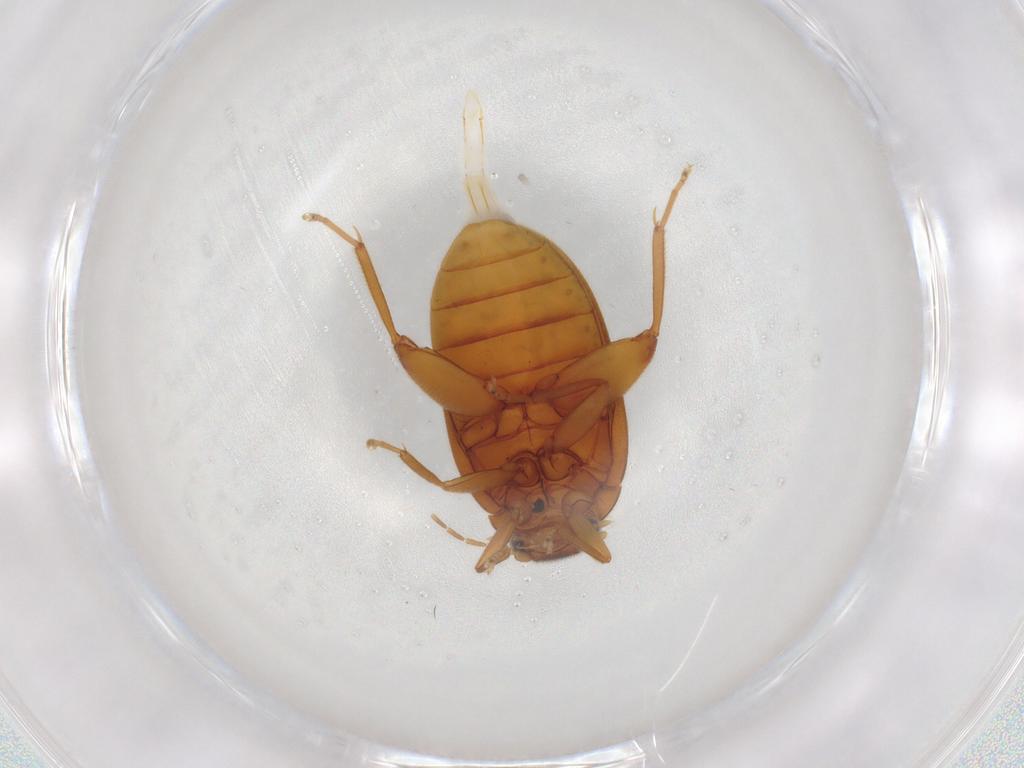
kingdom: Animalia
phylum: Arthropoda
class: Insecta
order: Coleoptera
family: Scirtidae
